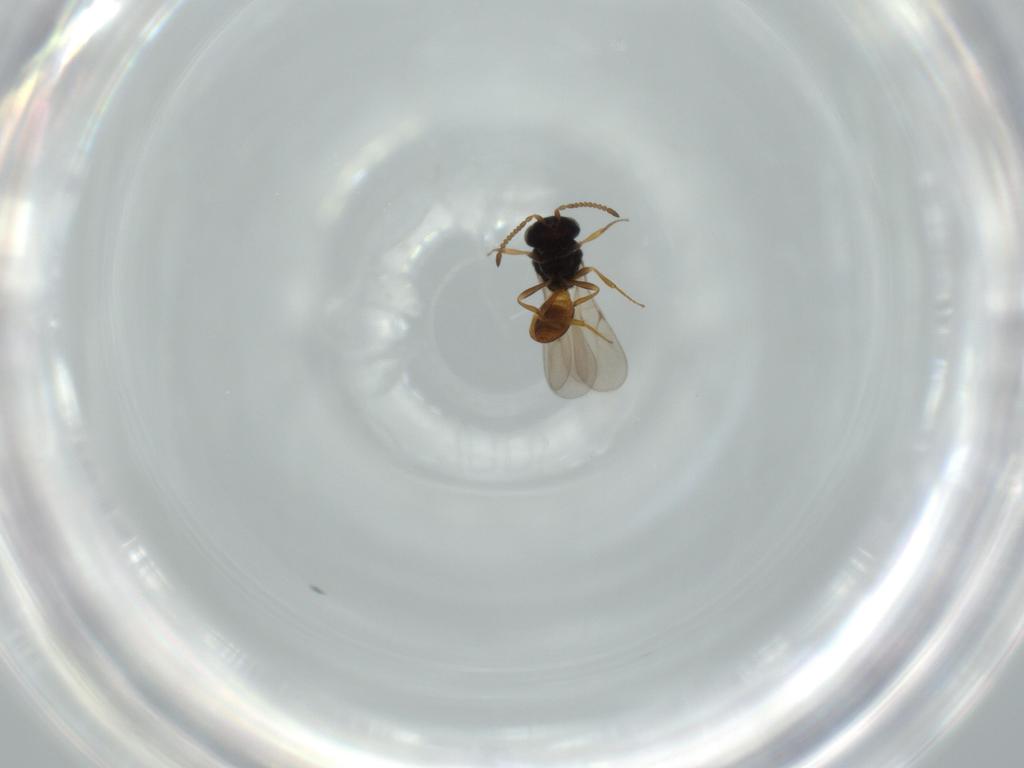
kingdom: Animalia
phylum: Arthropoda
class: Insecta
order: Hymenoptera
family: Scelionidae
